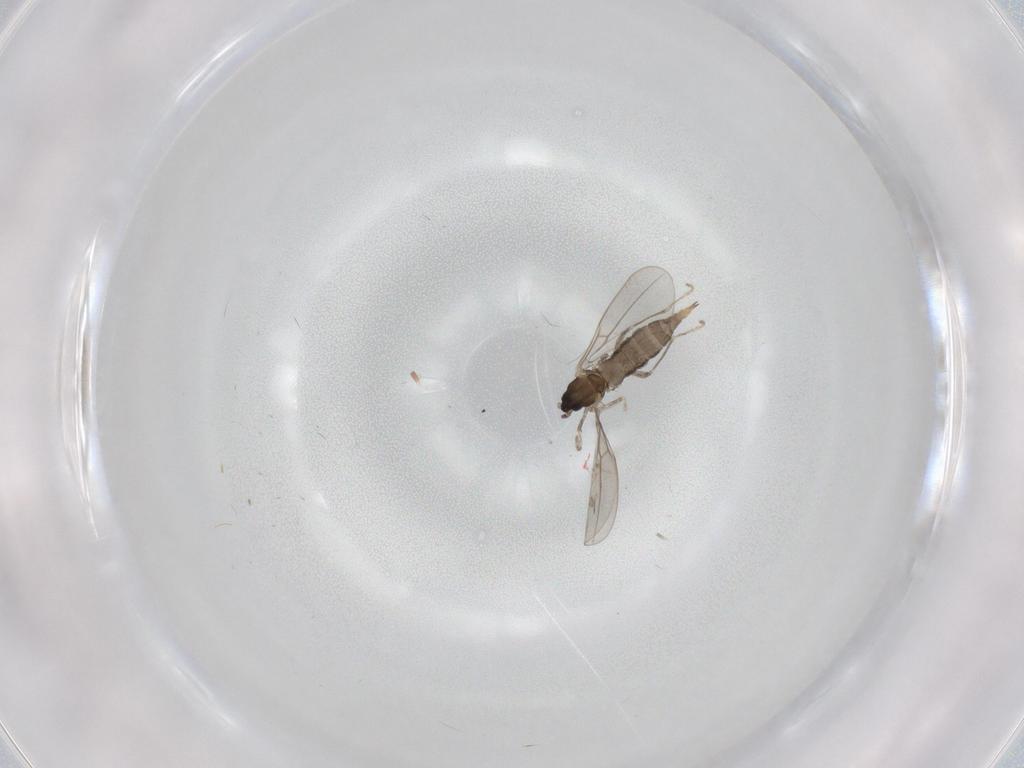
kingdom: Animalia
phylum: Arthropoda
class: Insecta
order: Diptera
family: Cecidomyiidae
